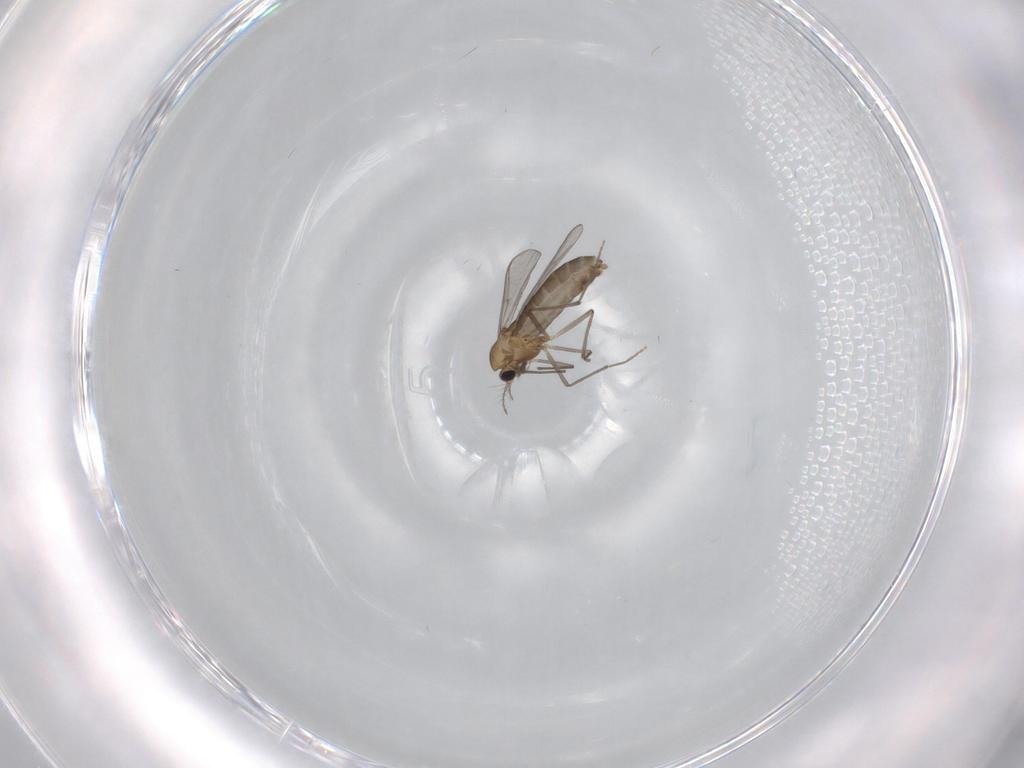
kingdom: Animalia
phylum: Arthropoda
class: Insecta
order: Diptera
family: Chironomidae
